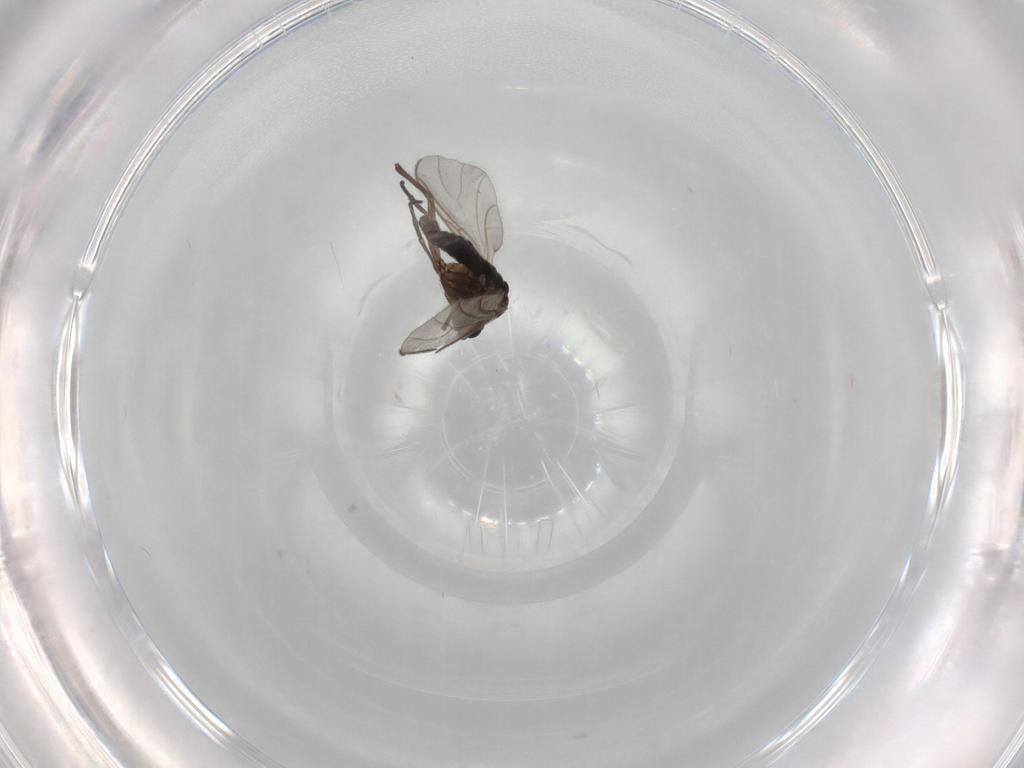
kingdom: Animalia
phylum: Arthropoda
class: Insecta
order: Diptera
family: Sciaridae
